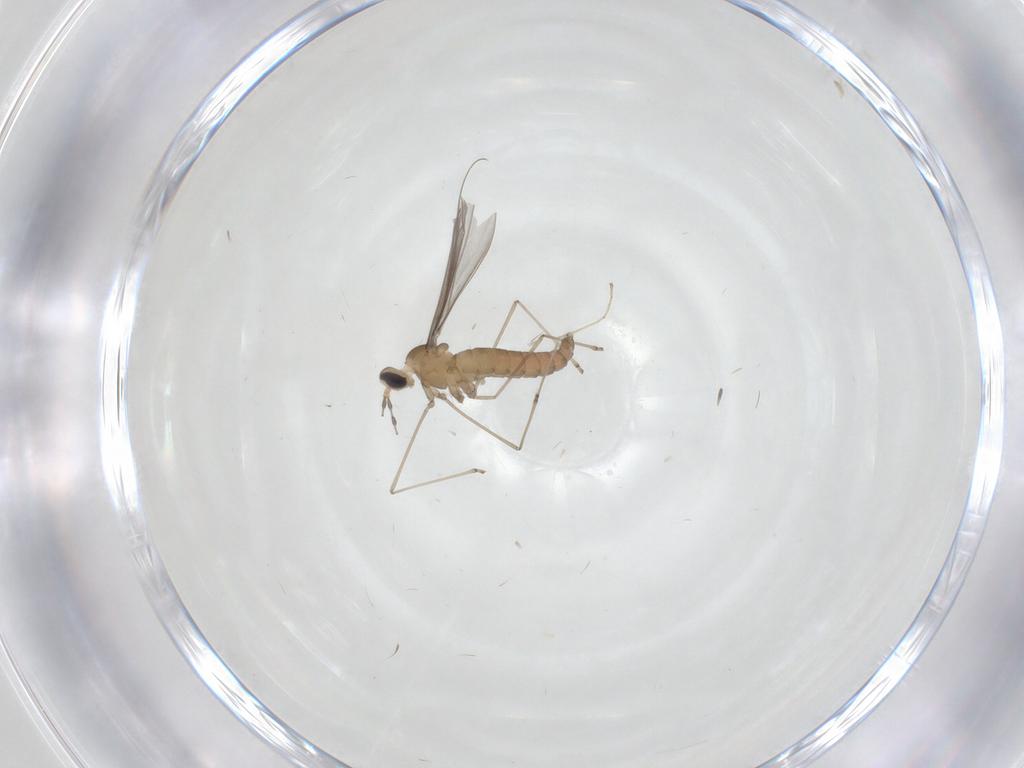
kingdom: Animalia
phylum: Arthropoda
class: Insecta
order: Diptera
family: Cecidomyiidae
